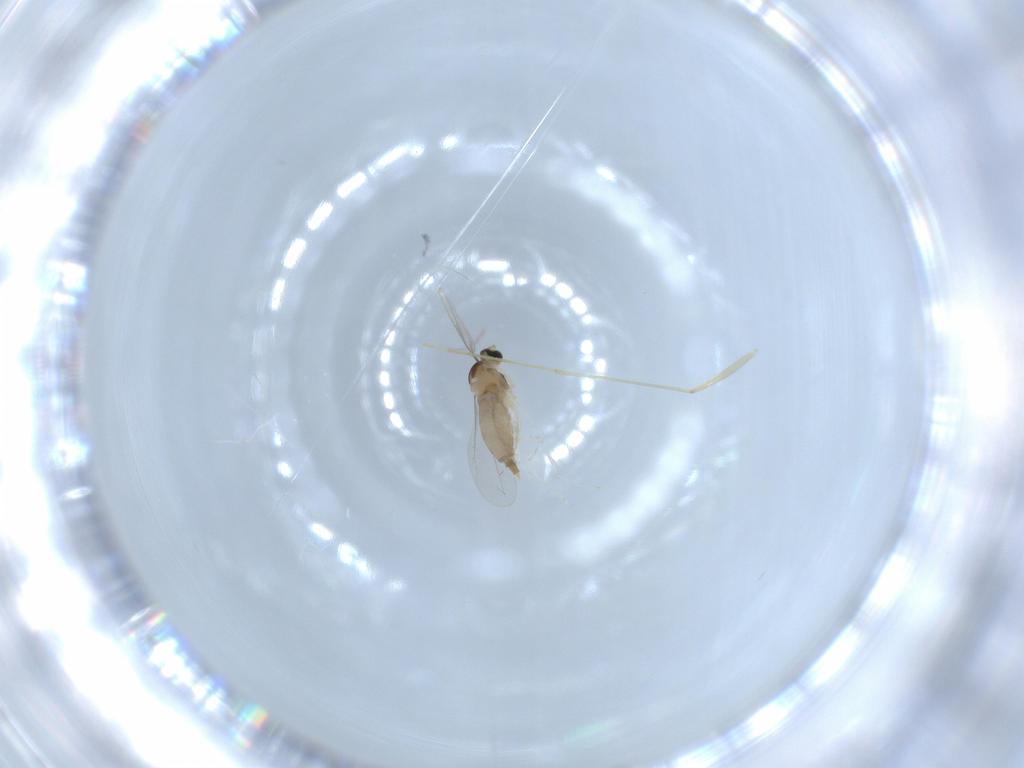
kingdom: Animalia
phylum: Arthropoda
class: Insecta
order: Diptera
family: Psychodidae
